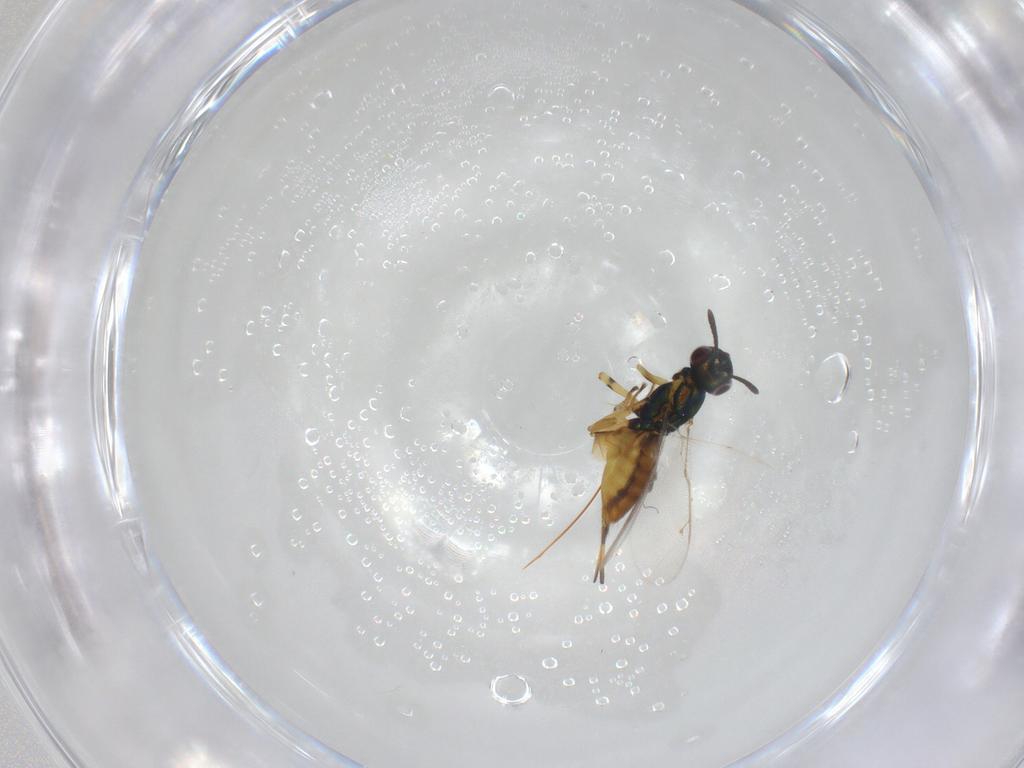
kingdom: Animalia
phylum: Arthropoda
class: Insecta
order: Hymenoptera
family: Eupelmidae
